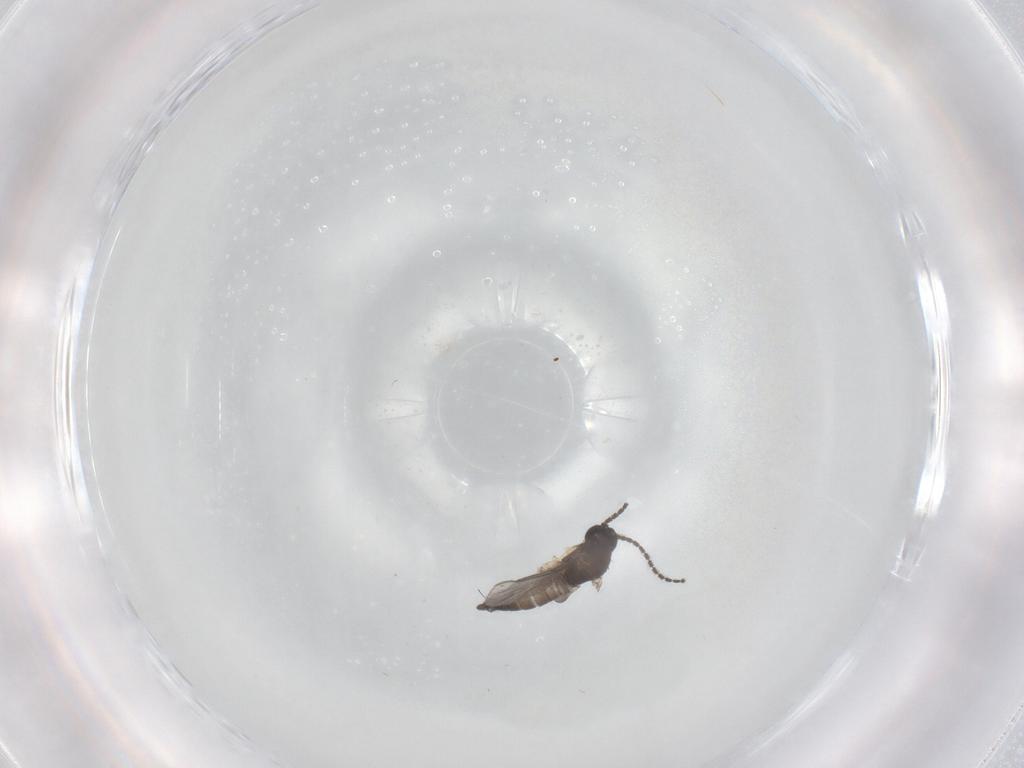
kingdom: Animalia
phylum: Arthropoda
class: Insecta
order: Diptera
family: Sciaridae
